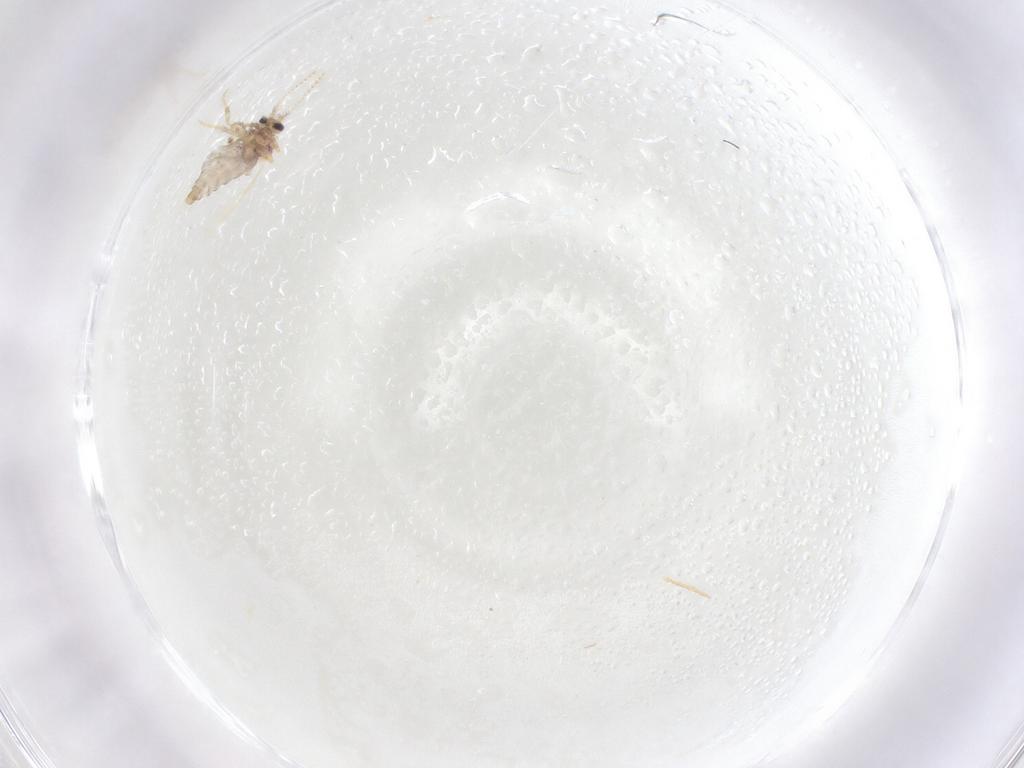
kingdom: Animalia
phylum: Arthropoda
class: Insecta
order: Diptera
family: Ceratopogonidae
